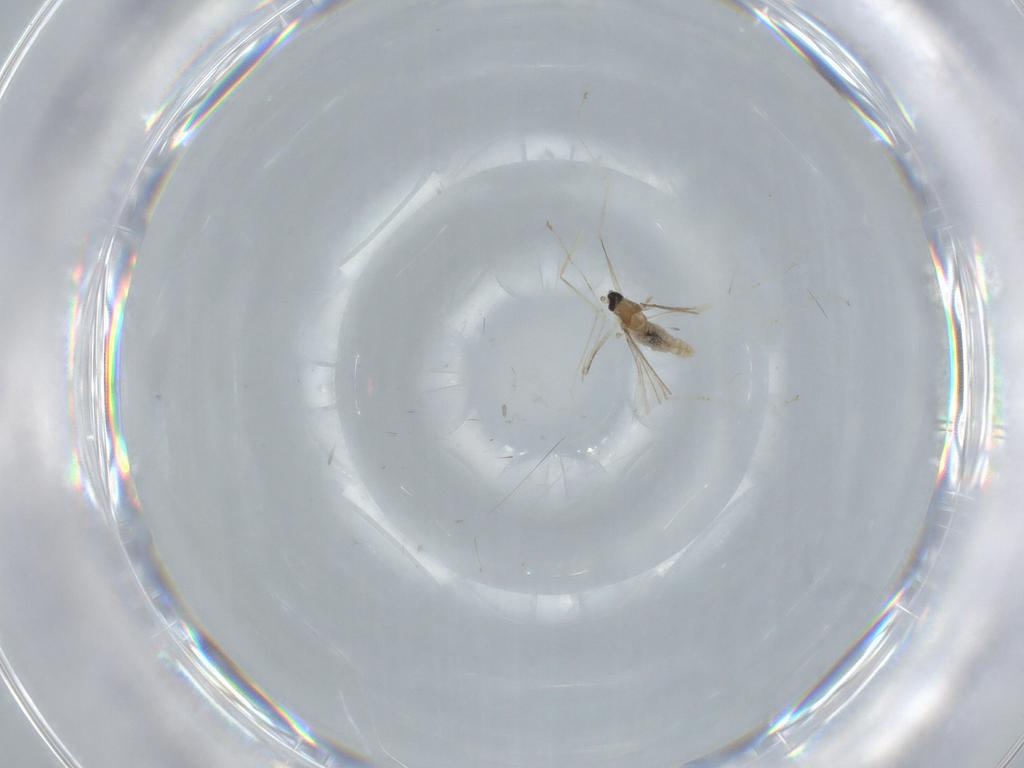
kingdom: Animalia
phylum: Arthropoda
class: Insecta
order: Diptera
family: Cecidomyiidae
